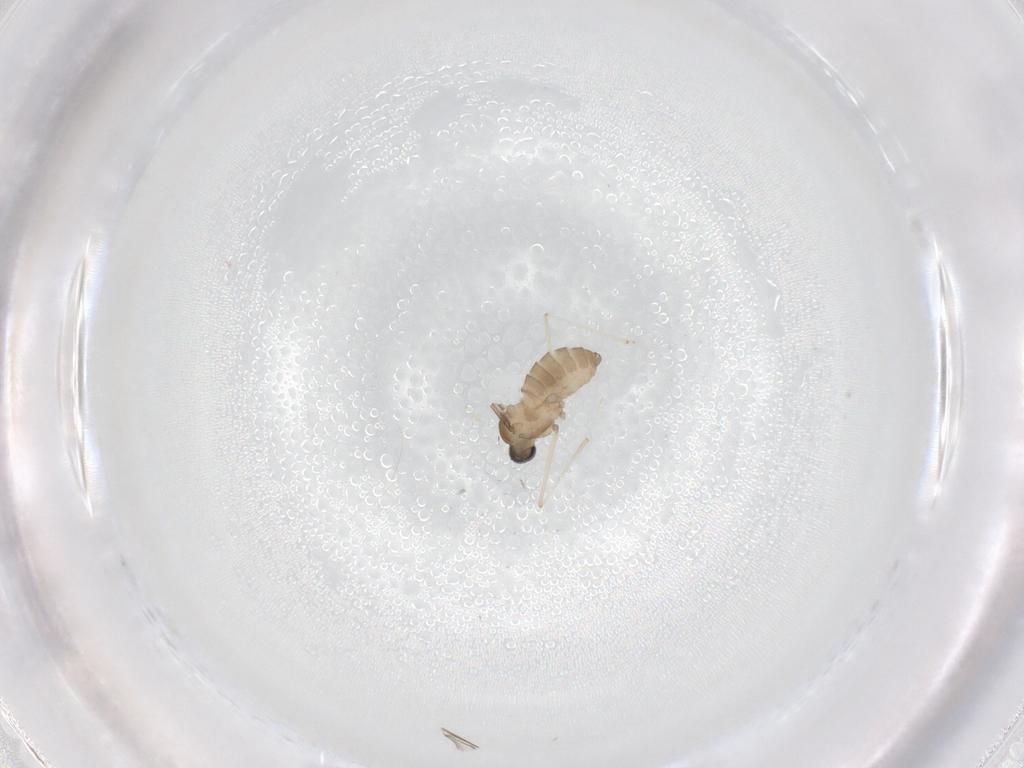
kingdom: Animalia
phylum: Arthropoda
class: Insecta
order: Diptera
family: Cecidomyiidae
